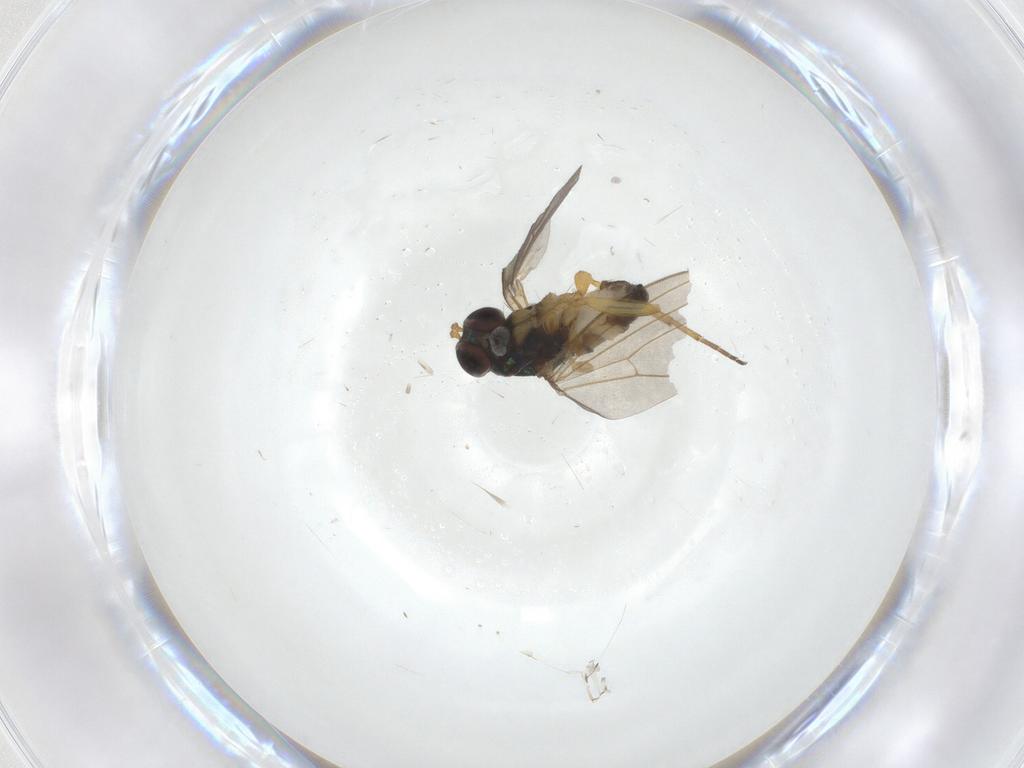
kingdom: Animalia
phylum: Arthropoda
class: Insecta
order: Diptera
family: Dolichopodidae
